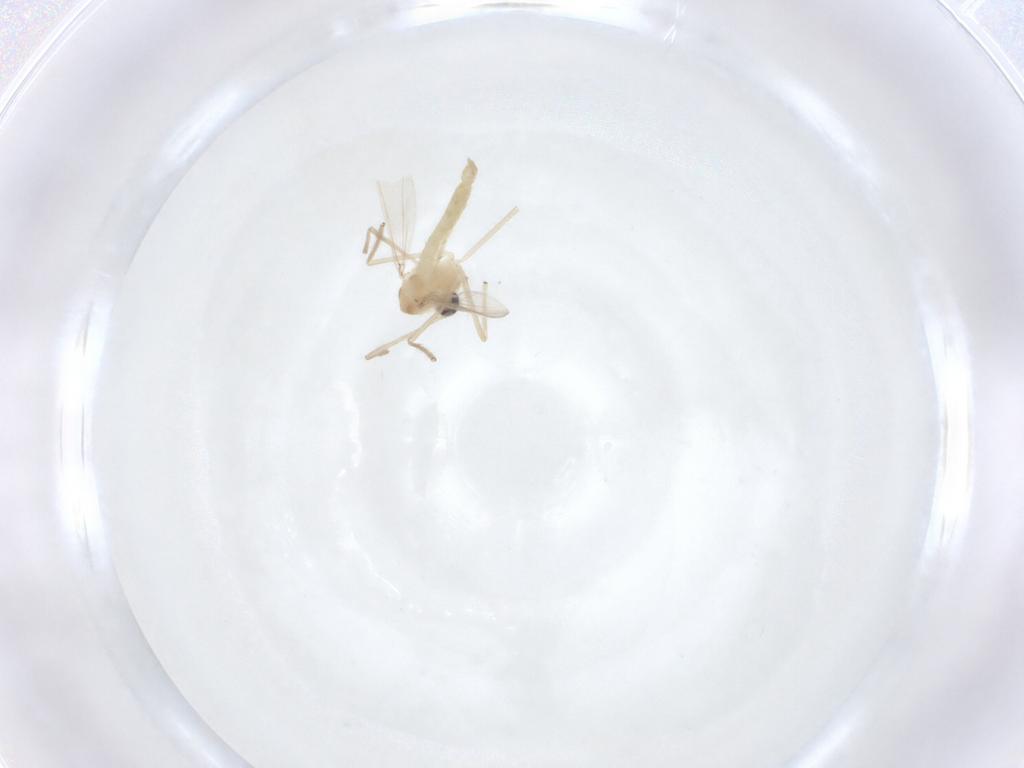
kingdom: Animalia
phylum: Arthropoda
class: Insecta
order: Diptera
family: Chironomidae
